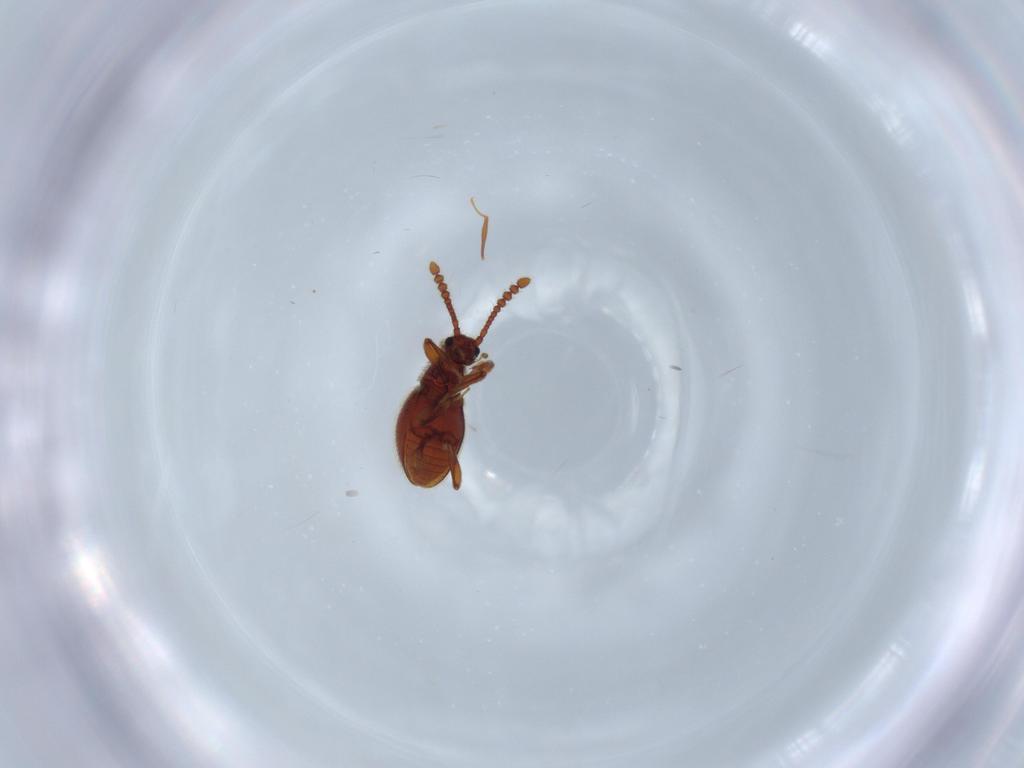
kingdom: Animalia
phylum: Arthropoda
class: Insecta
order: Coleoptera
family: Staphylinidae
